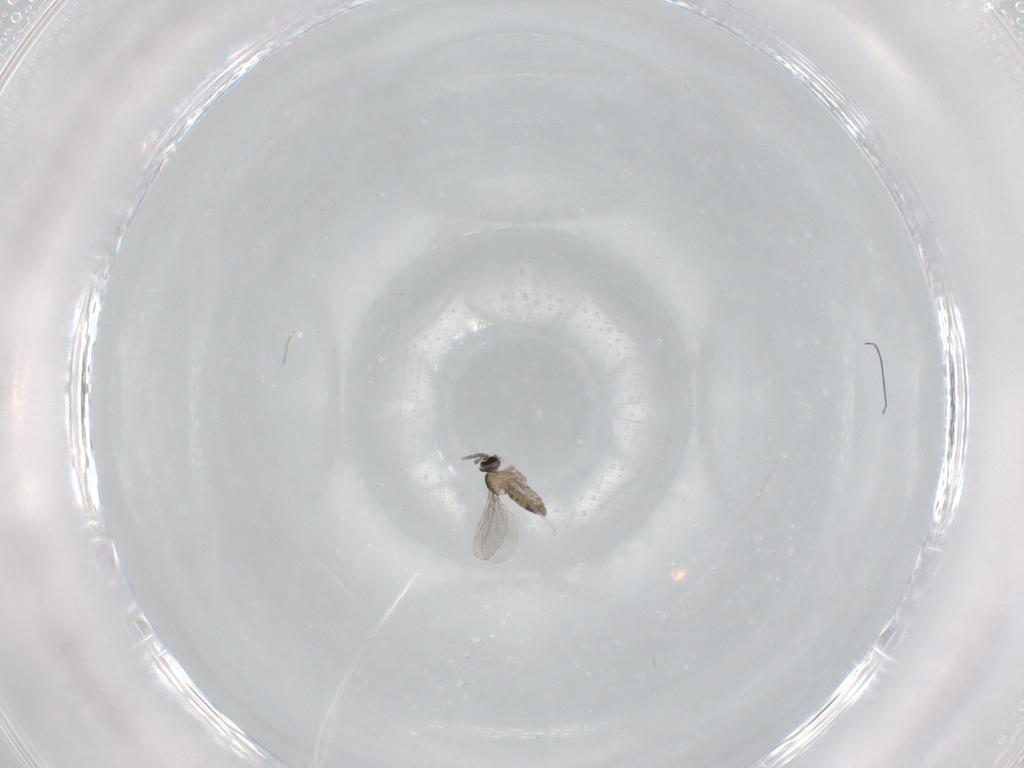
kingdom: Animalia
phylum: Arthropoda
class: Insecta
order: Diptera
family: Cecidomyiidae
